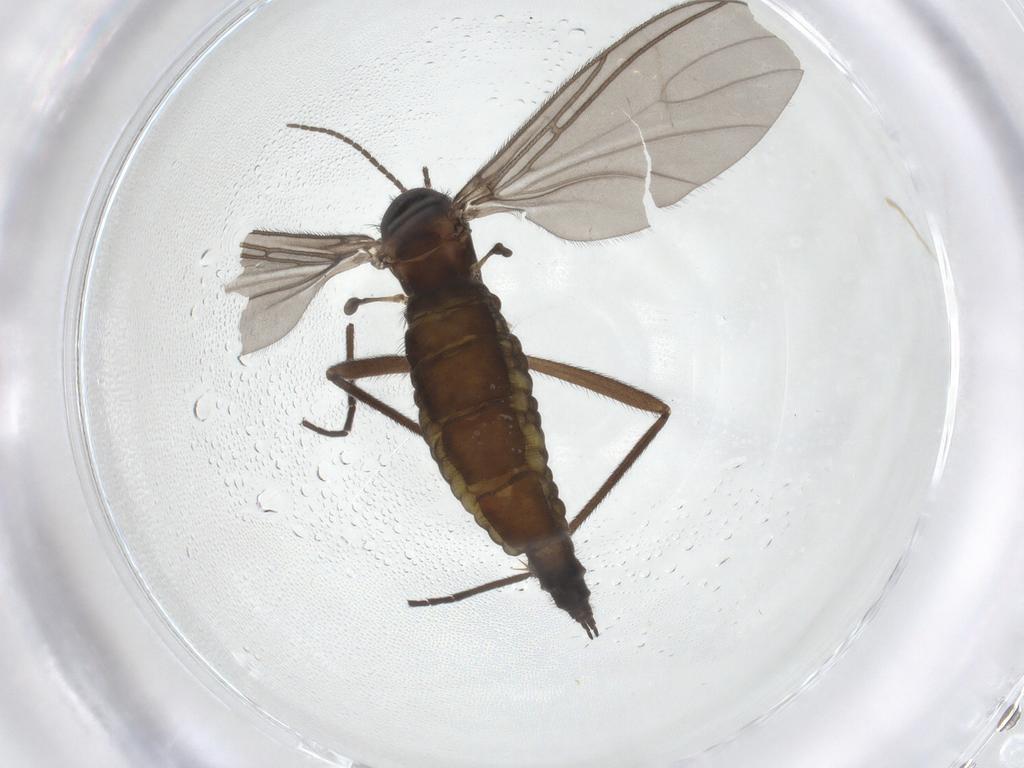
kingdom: Animalia
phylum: Arthropoda
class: Insecta
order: Diptera
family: Sciaridae
